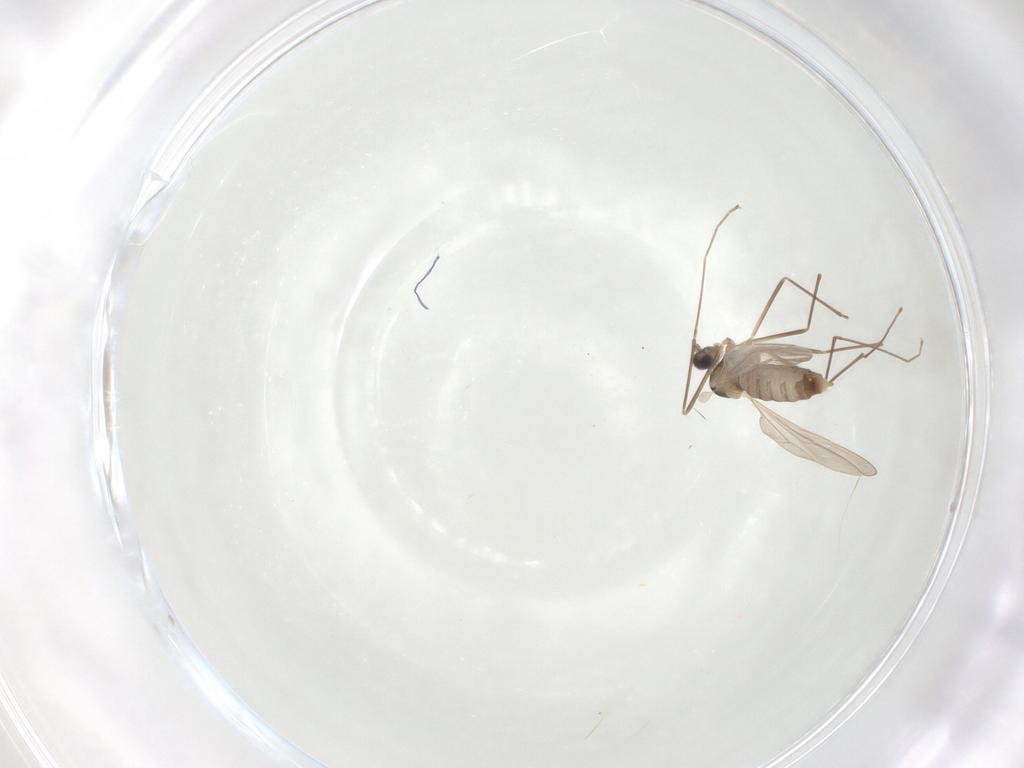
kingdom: Animalia
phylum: Arthropoda
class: Insecta
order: Diptera
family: Cecidomyiidae
